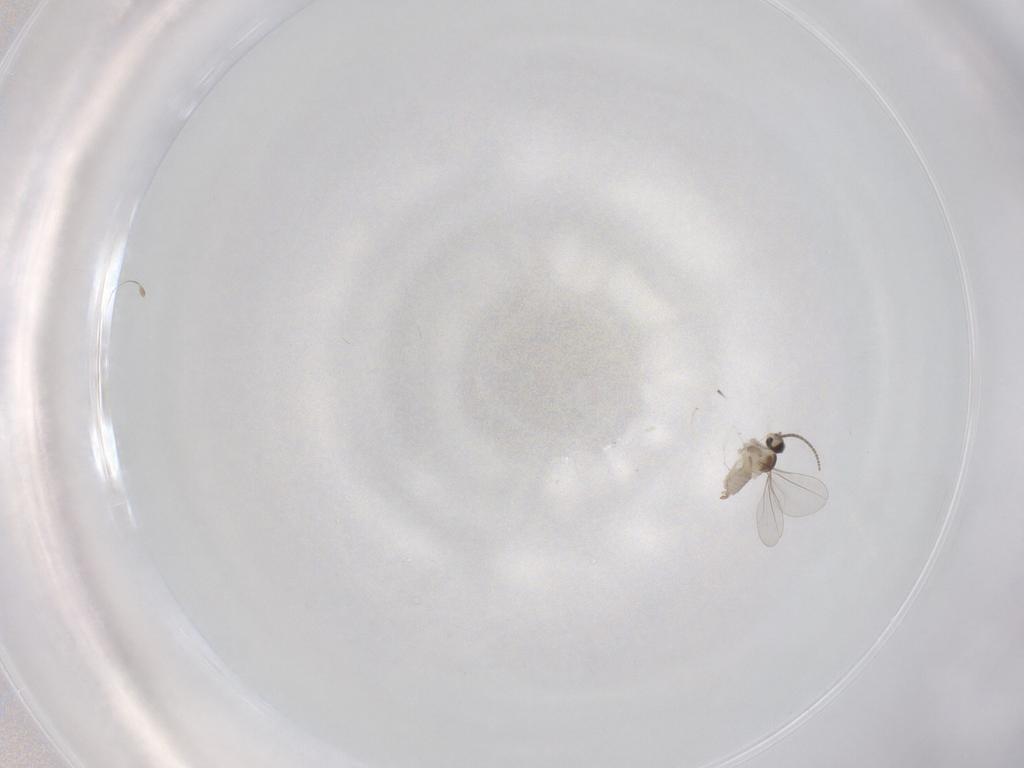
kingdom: Animalia
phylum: Arthropoda
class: Insecta
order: Diptera
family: Cecidomyiidae
